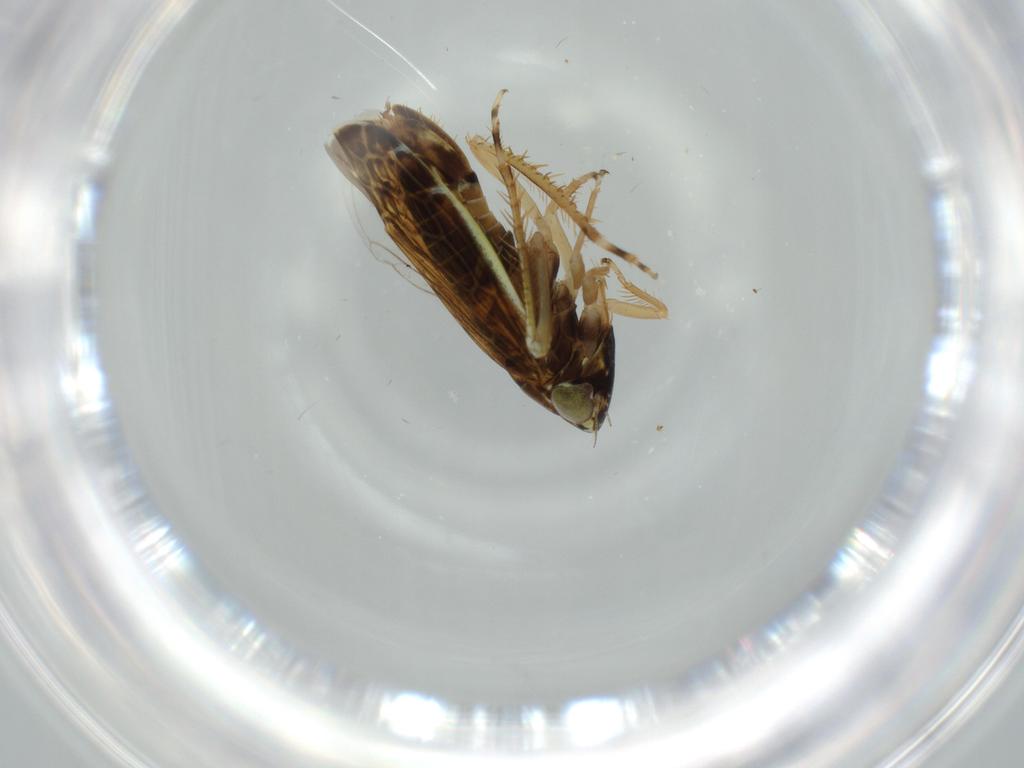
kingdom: Animalia
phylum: Arthropoda
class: Insecta
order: Hemiptera
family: Cicadellidae
